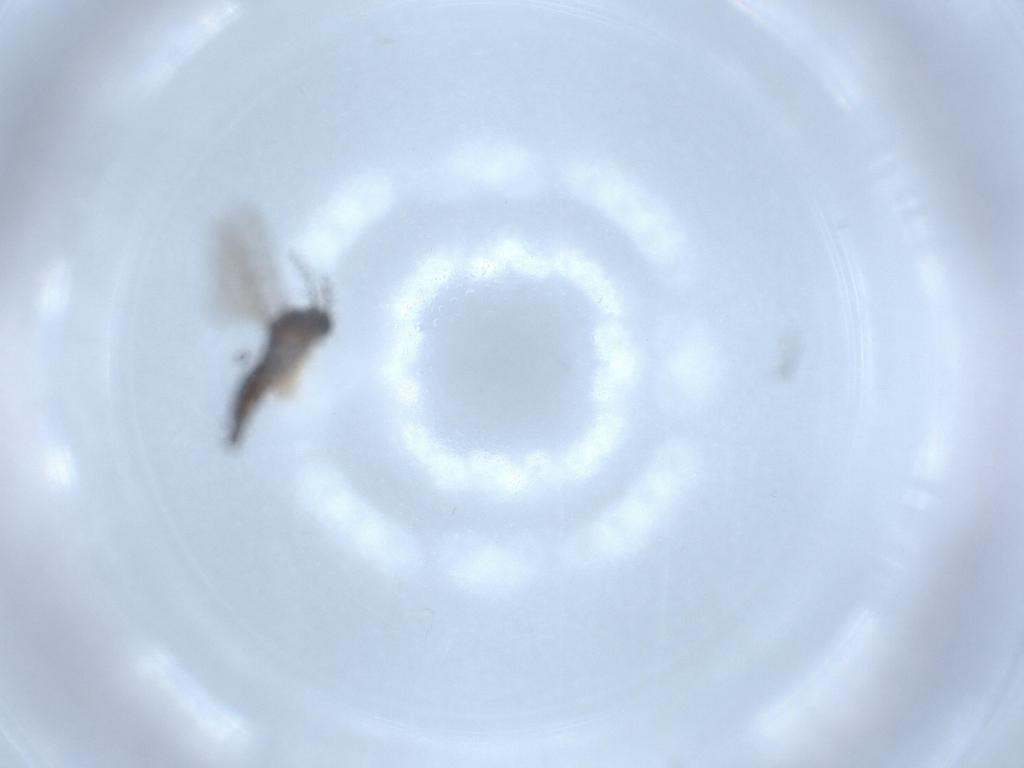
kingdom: Animalia
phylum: Arthropoda
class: Insecta
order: Diptera
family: Sciaridae
